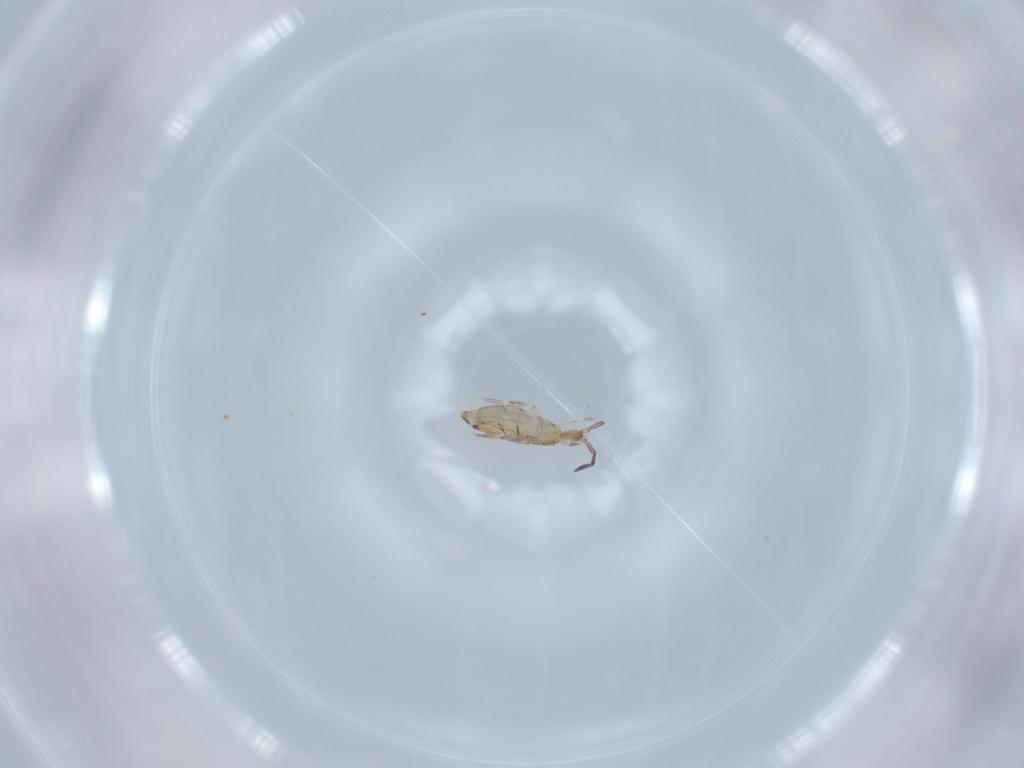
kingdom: Animalia
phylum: Arthropoda
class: Collembola
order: Entomobryomorpha
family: Entomobryidae
